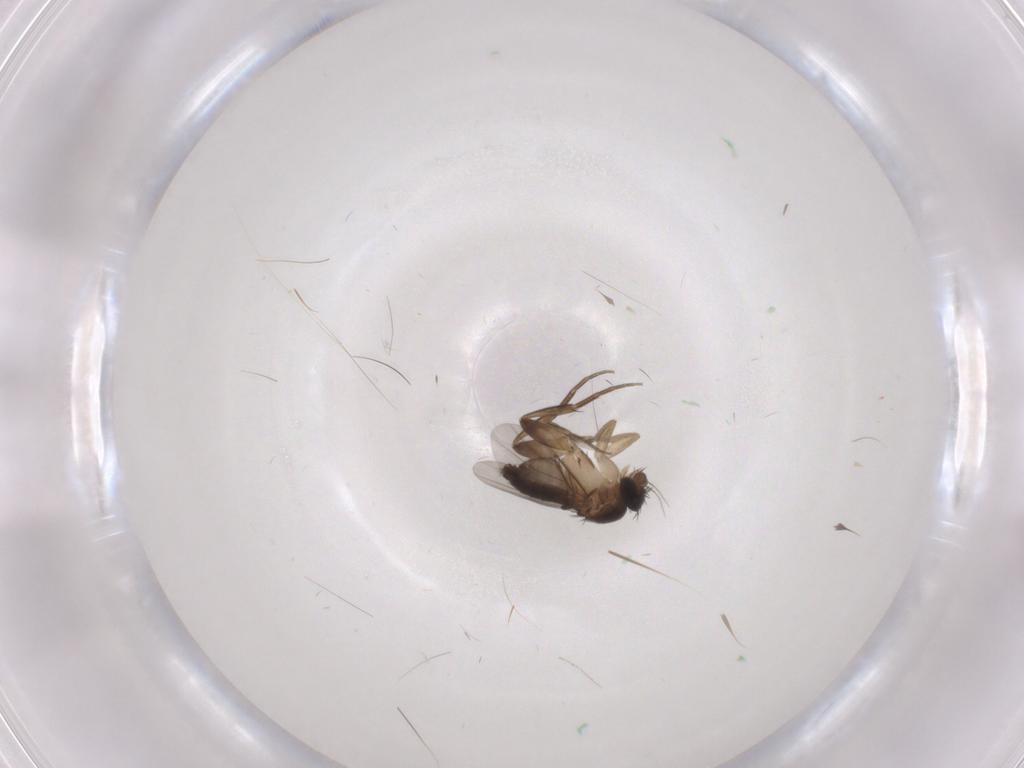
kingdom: Animalia
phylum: Arthropoda
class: Insecta
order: Diptera
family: Phoridae
